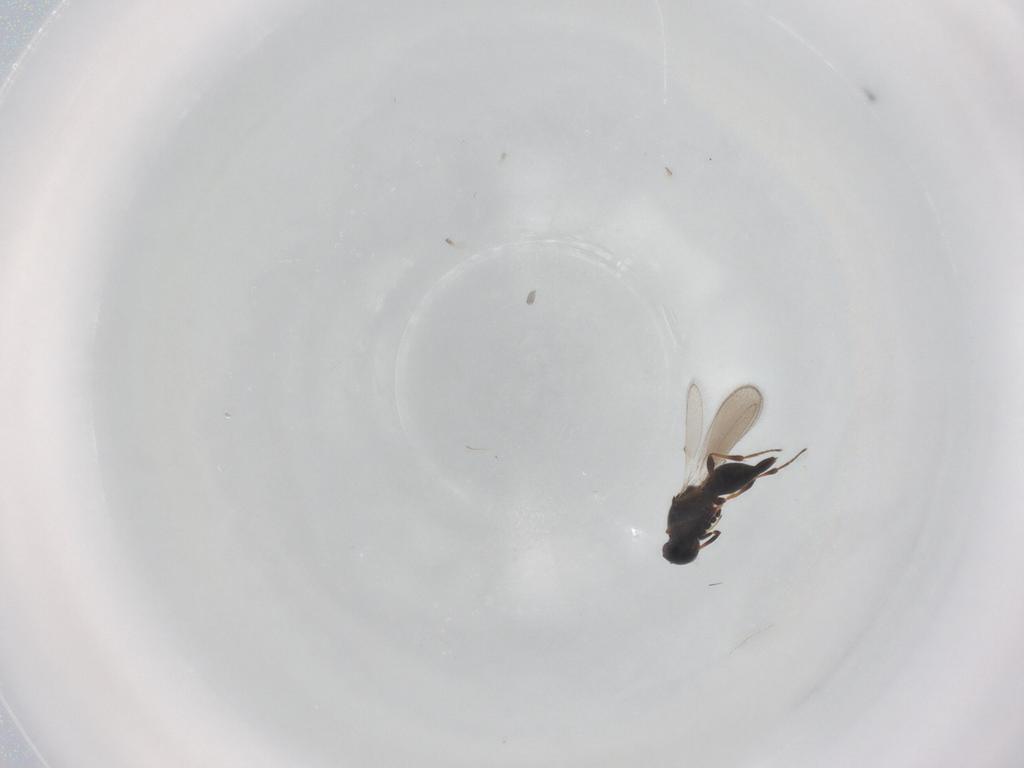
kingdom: Animalia
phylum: Arthropoda
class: Insecta
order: Hymenoptera
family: Platygastridae
